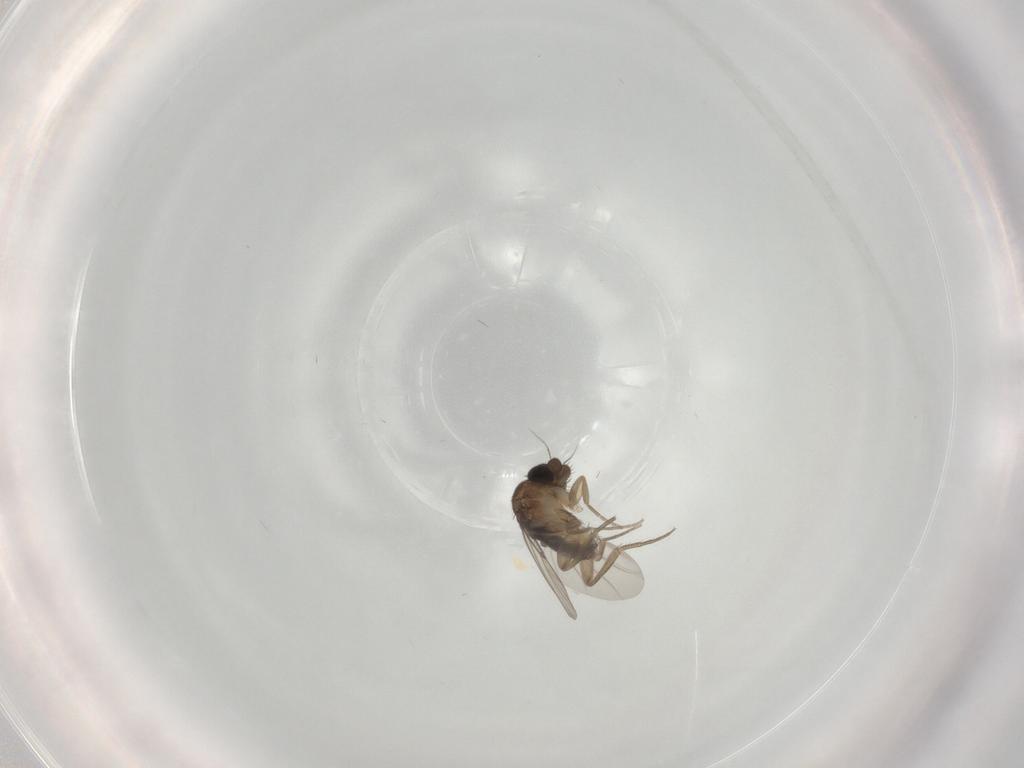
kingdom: Animalia
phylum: Arthropoda
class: Insecta
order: Diptera
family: Phoridae
